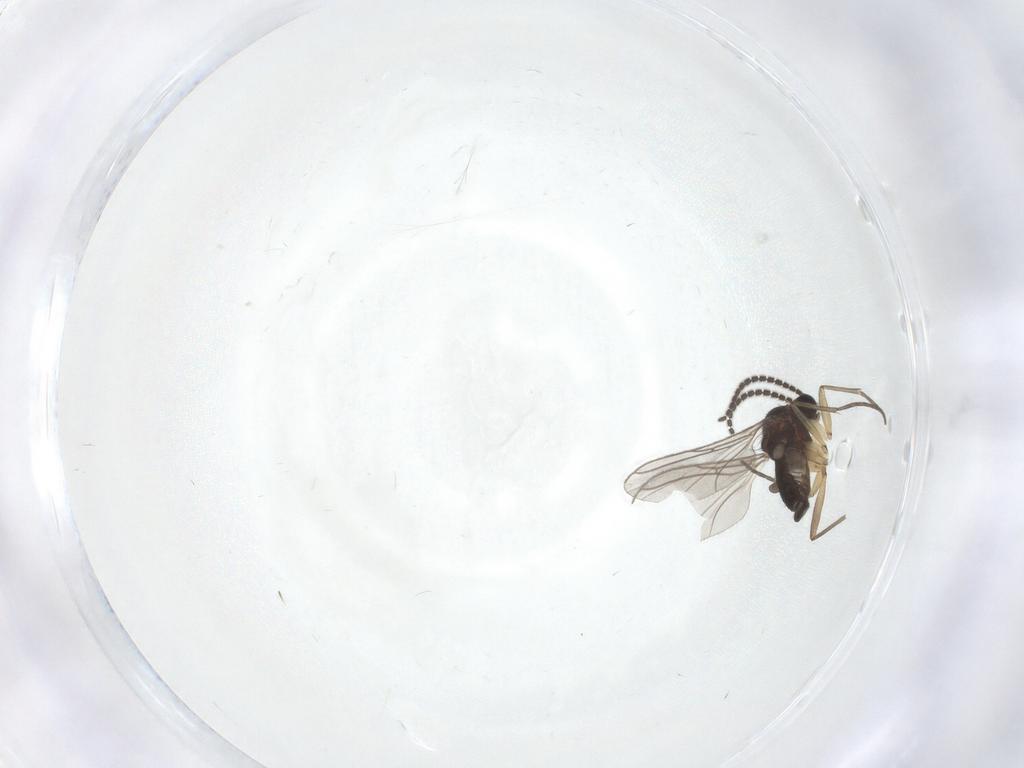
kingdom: Animalia
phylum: Arthropoda
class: Insecta
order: Diptera
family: Sciaridae
